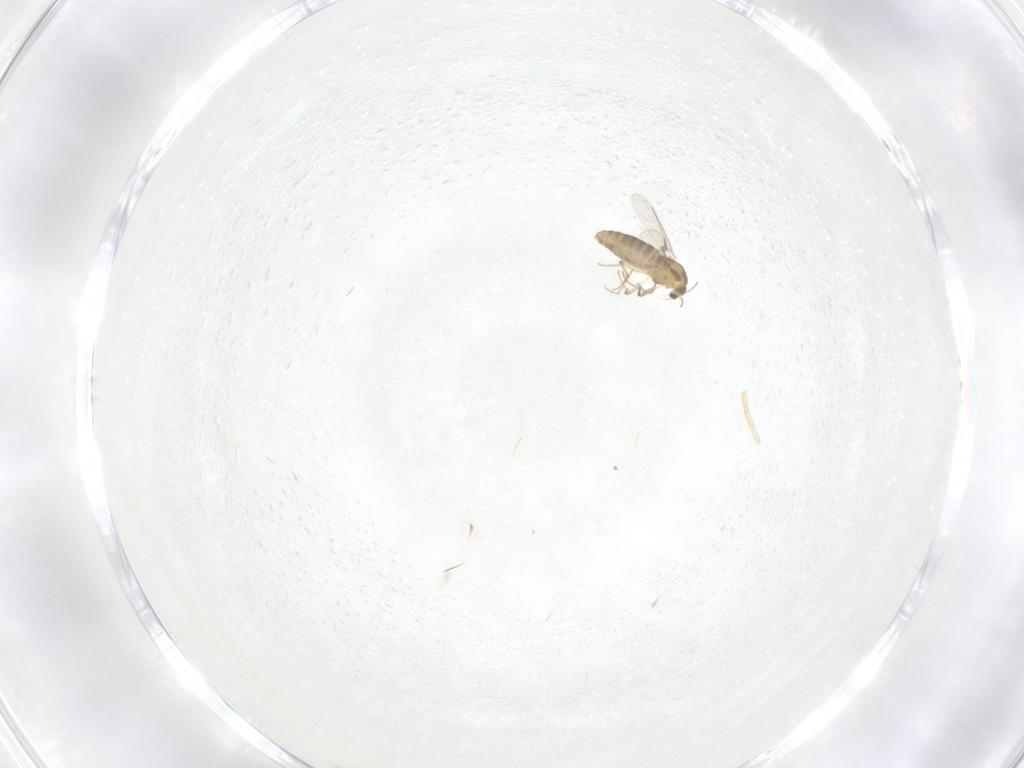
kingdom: Animalia
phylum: Arthropoda
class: Insecta
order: Diptera
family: Chironomidae
